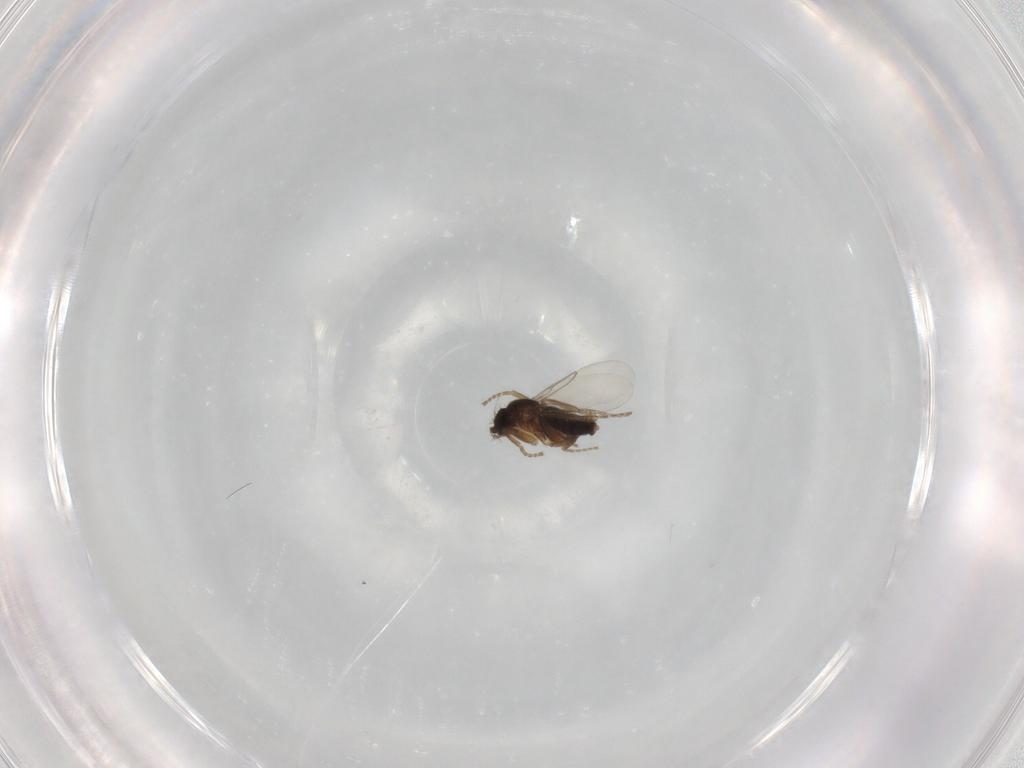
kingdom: Animalia
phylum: Arthropoda
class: Insecta
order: Diptera
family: Phoridae
